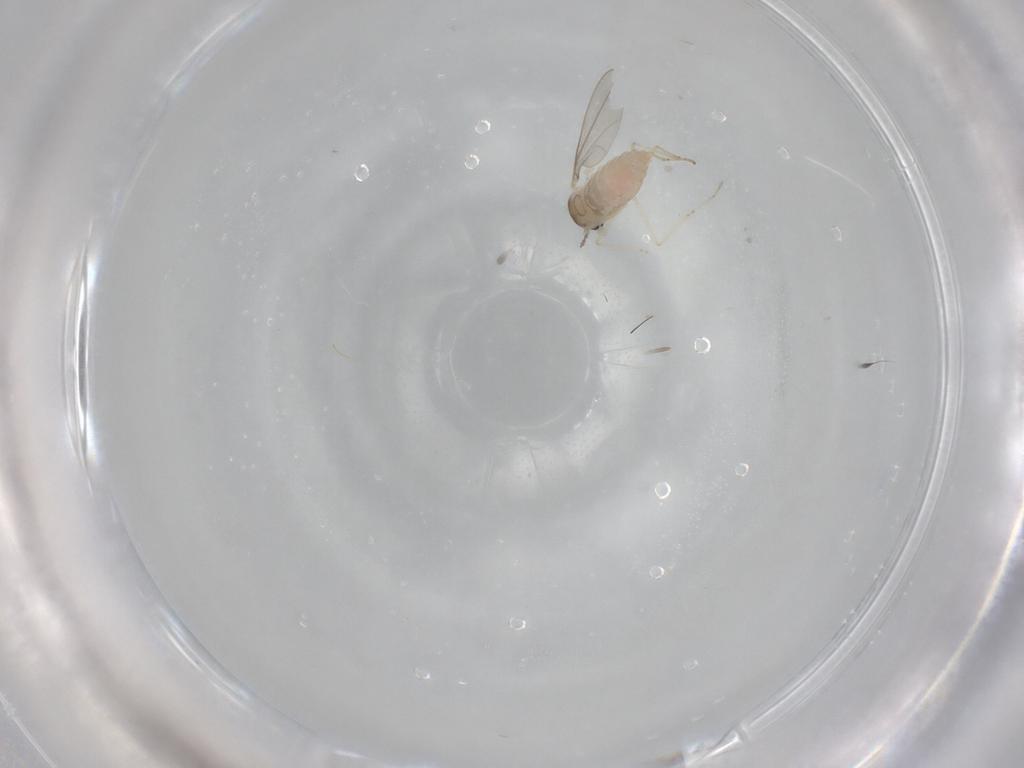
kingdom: Animalia
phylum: Arthropoda
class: Insecta
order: Diptera
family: Cecidomyiidae
